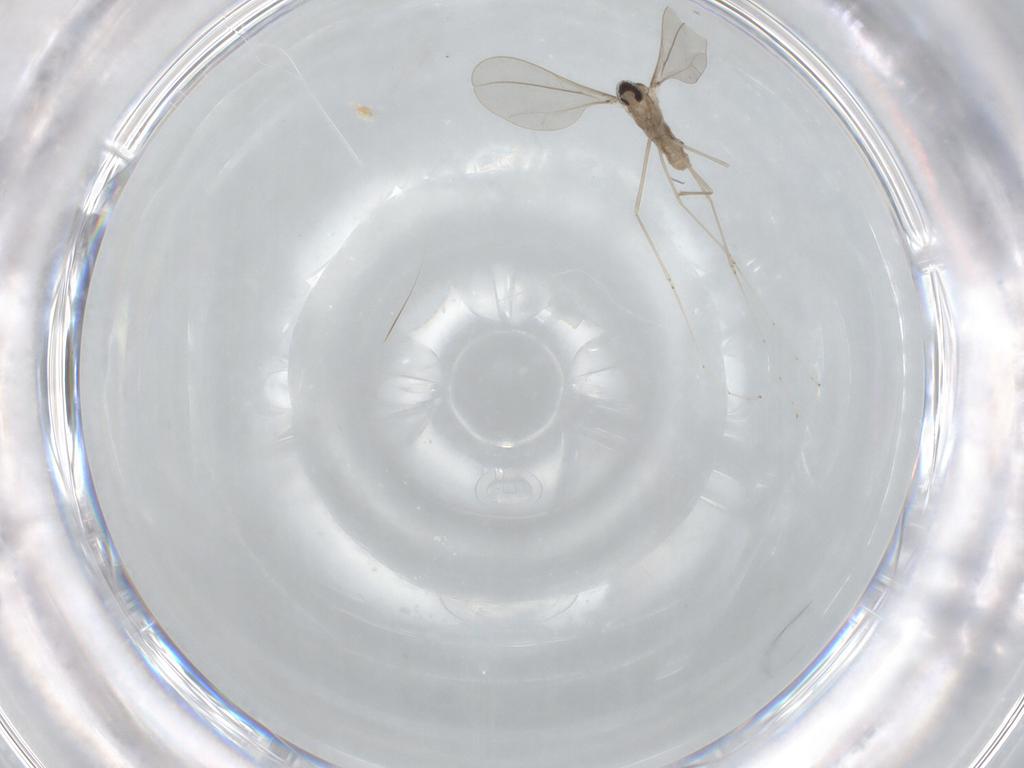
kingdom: Animalia
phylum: Arthropoda
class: Insecta
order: Diptera
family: Cecidomyiidae
